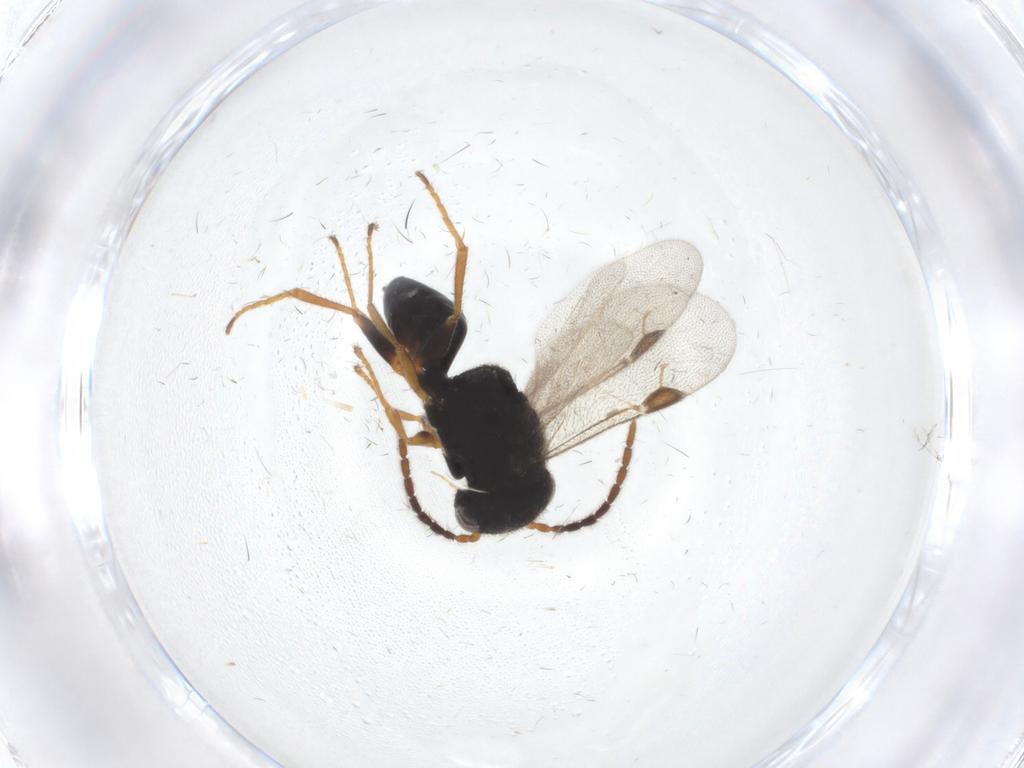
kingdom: Animalia
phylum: Arthropoda
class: Insecta
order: Hymenoptera
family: Dryinidae
